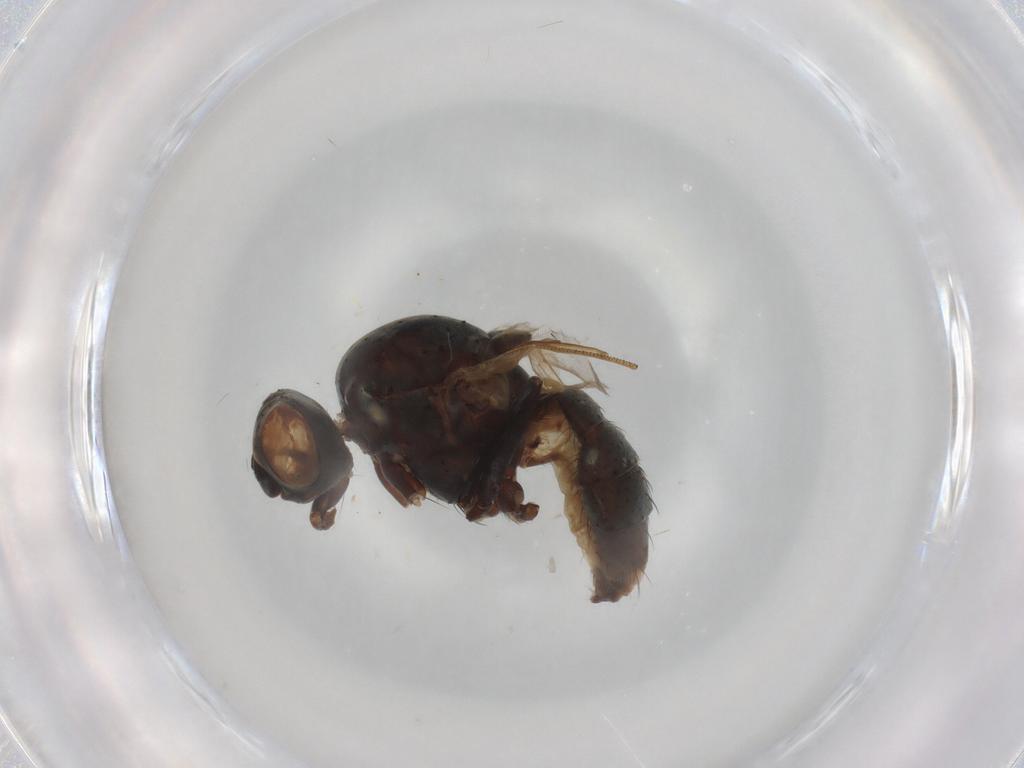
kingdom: Animalia
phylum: Arthropoda
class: Insecta
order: Diptera
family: Anthomyiidae
